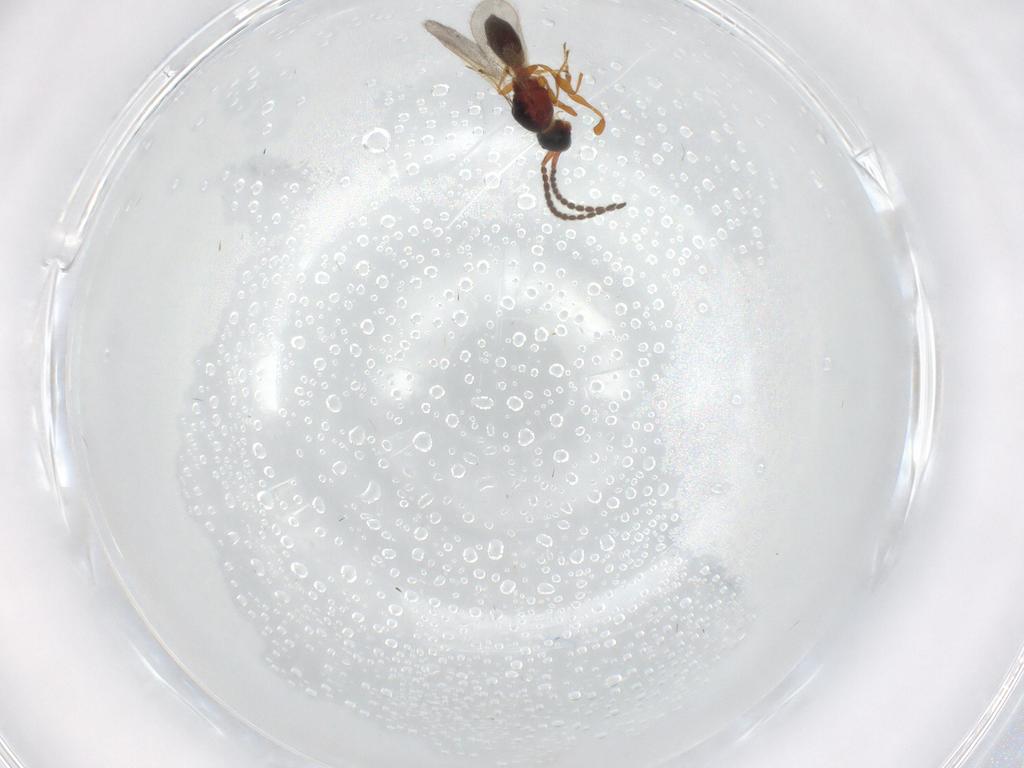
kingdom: Animalia
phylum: Arthropoda
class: Insecta
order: Hymenoptera
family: Diapriidae
